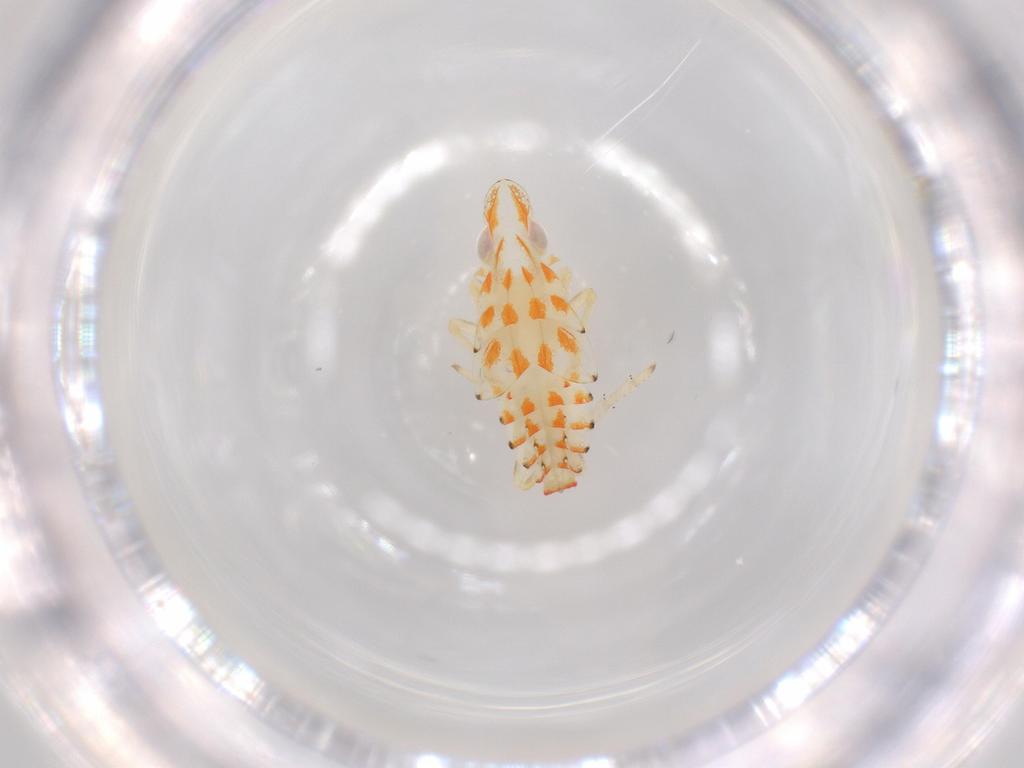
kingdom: Animalia
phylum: Arthropoda
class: Insecta
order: Hemiptera
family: Tropiduchidae
